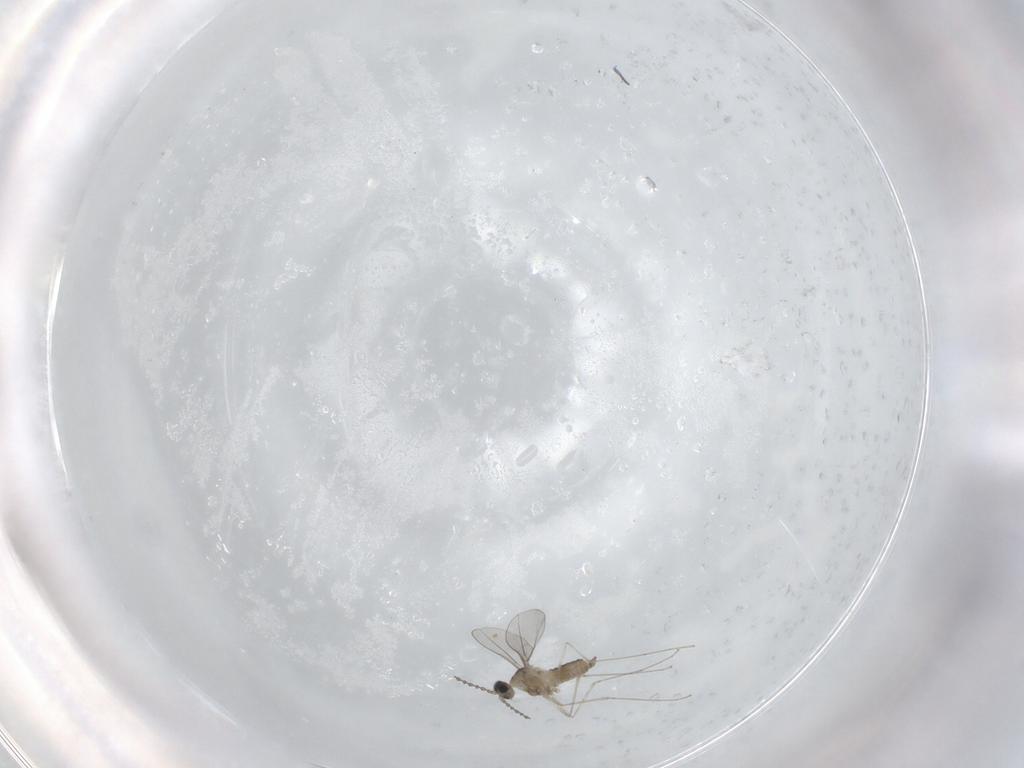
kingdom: Animalia
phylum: Arthropoda
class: Insecta
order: Diptera
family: Cecidomyiidae
